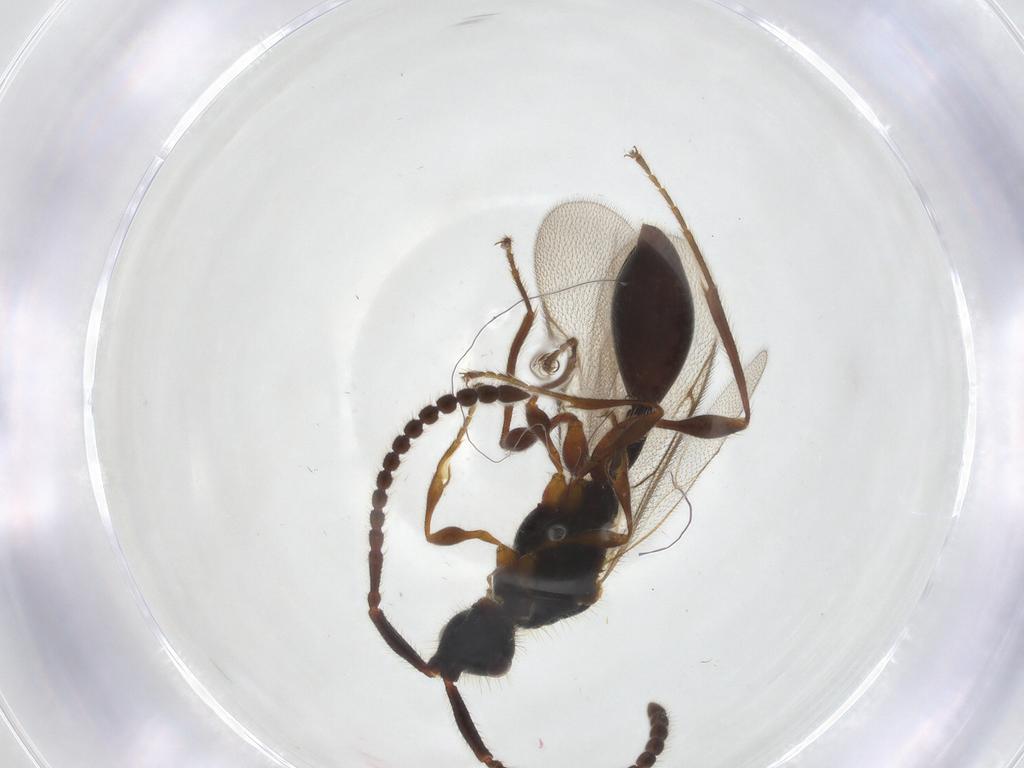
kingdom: Animalia
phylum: Arthropoda
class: Insecta
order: Hymenoptera
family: Diapriidae
